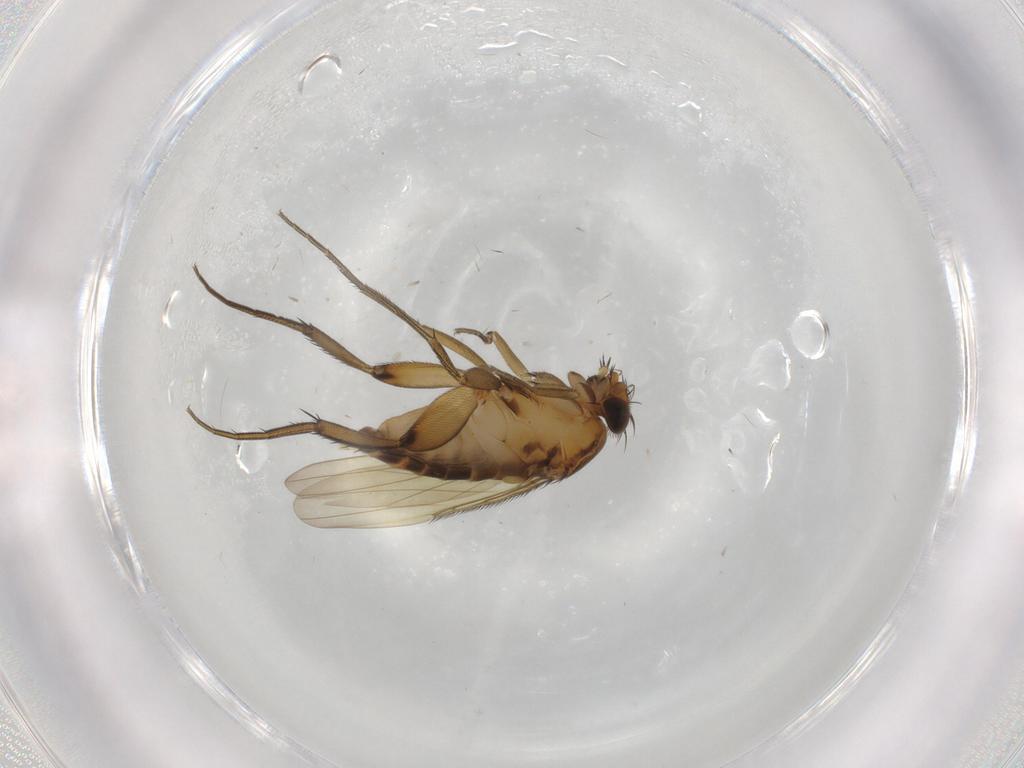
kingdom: Animalia
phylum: Arthropoda
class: Insecta
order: Diptera
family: Phoridae
